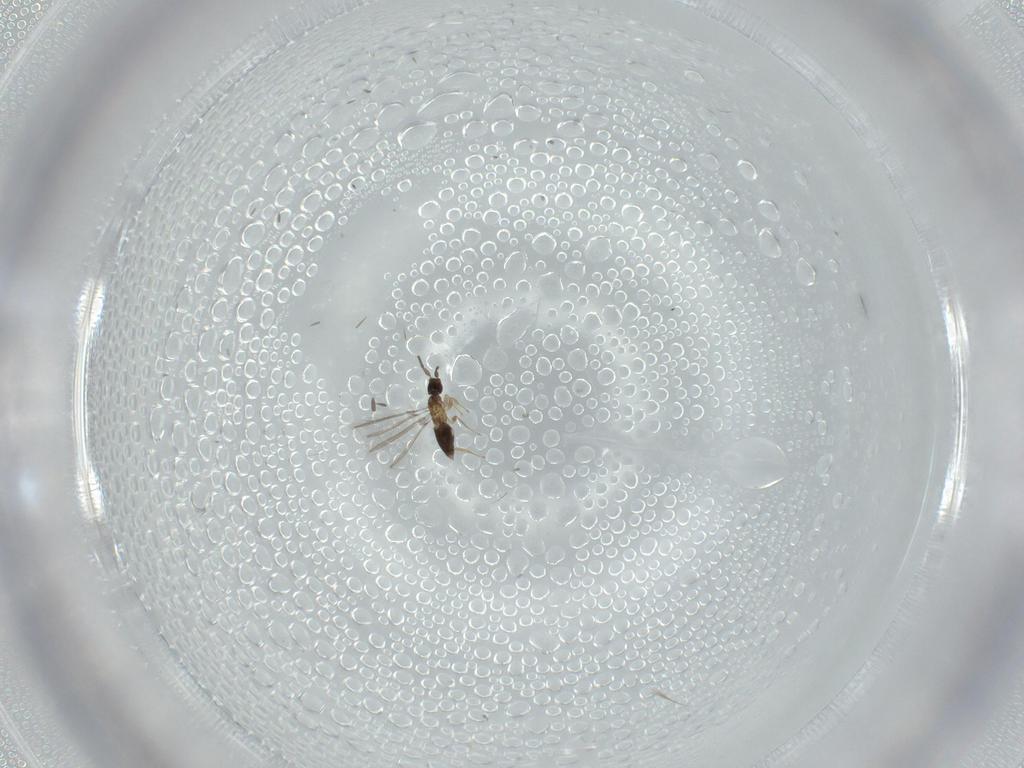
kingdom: Animalia
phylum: Arthropoda
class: Insecta
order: Hymenoptera
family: Mymaridae
